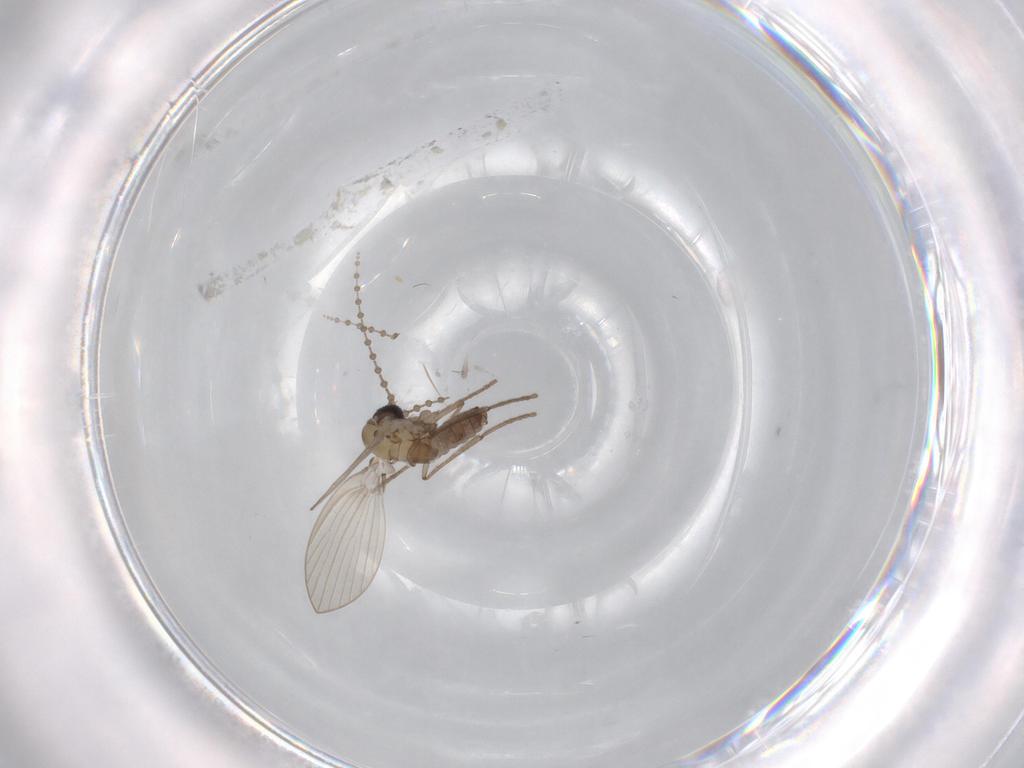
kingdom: Animalia
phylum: Arthropoda
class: Insecta
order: Diptera
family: Psychodidae
